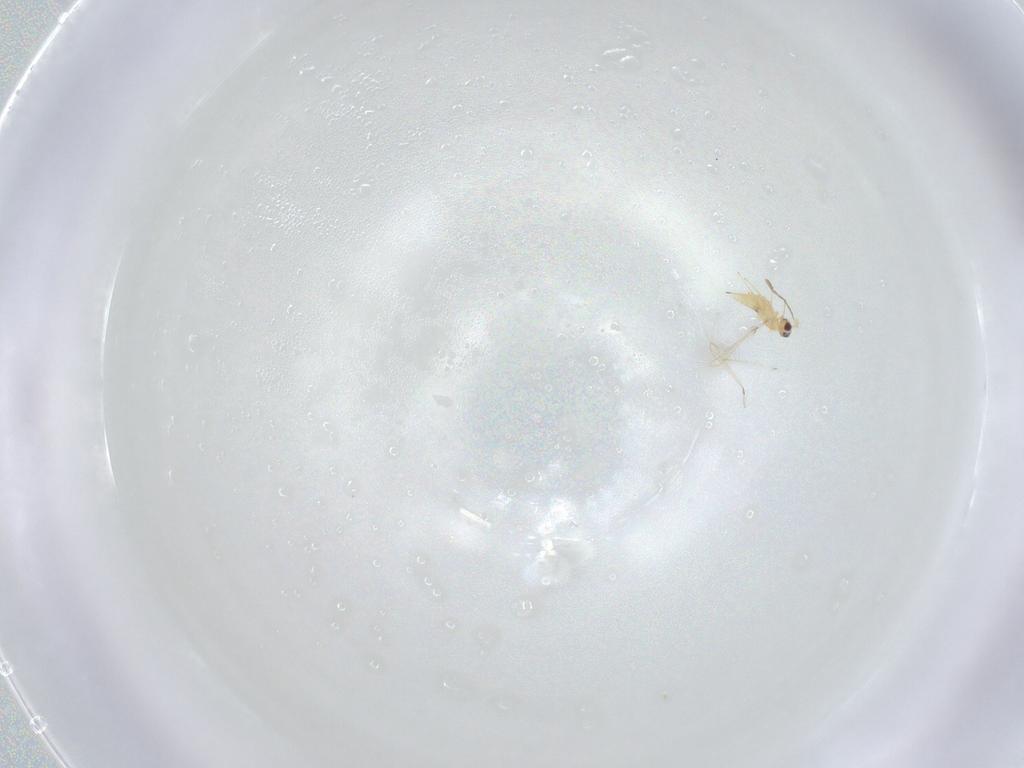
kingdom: Animalia
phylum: Arthropoda
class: Insecta
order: Hymenoptera
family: Mymaridae
